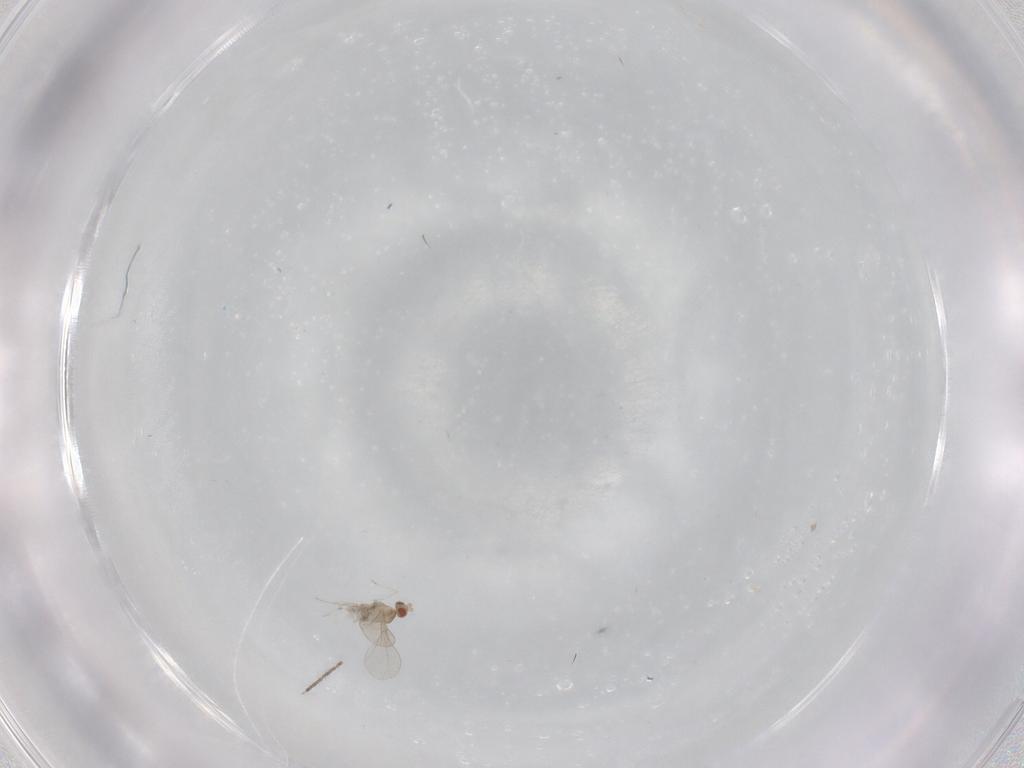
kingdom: Animalia
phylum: Arthropoda
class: Insecta
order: Diptera
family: Cecidomyiidae
